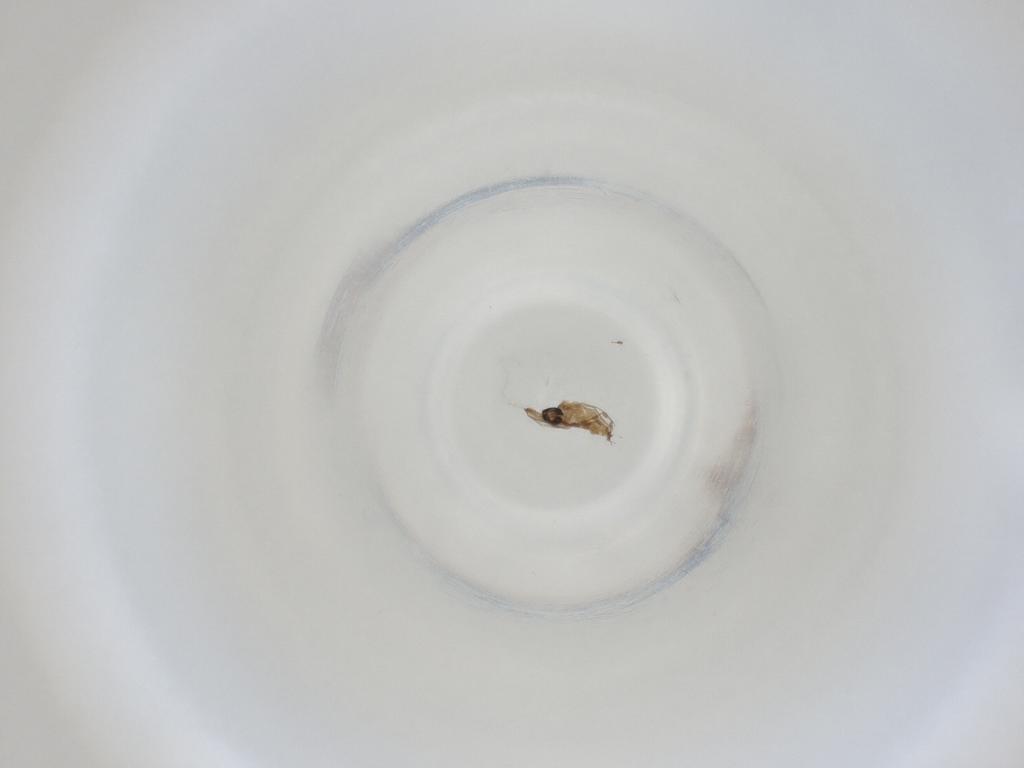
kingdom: Animalia
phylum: Arthropoda
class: Insecta
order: Diptera
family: Cecidomyiidae
